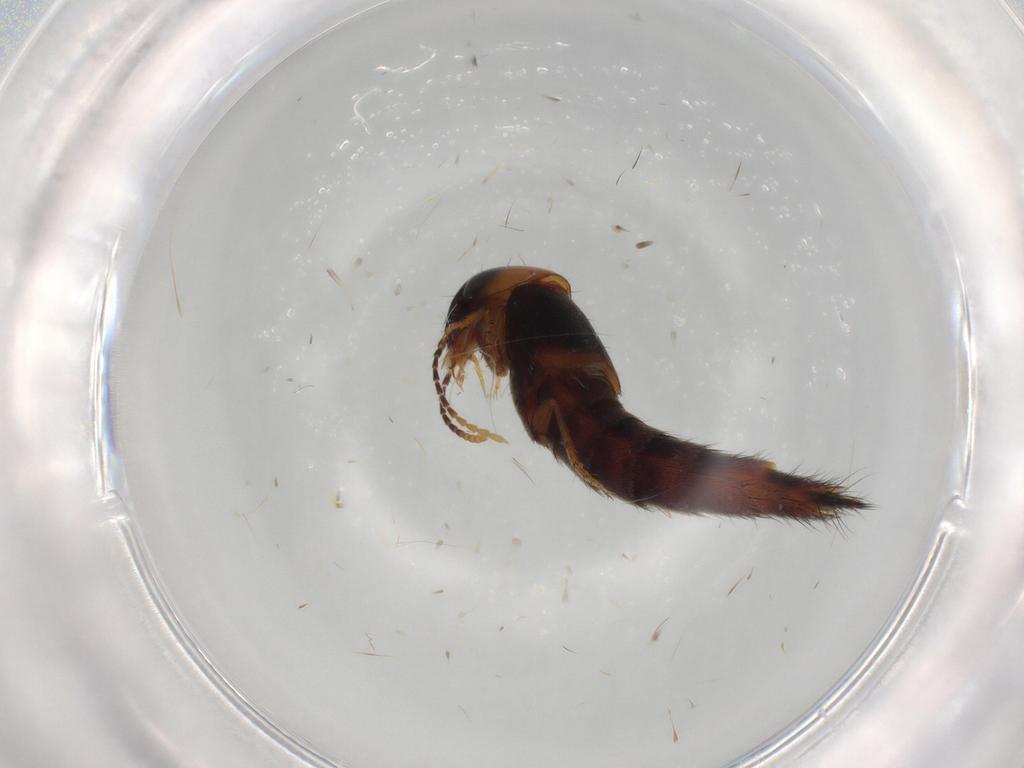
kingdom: Animalia
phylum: Arthropoda
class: Insecta
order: Coleoptera
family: Staphylinidae
